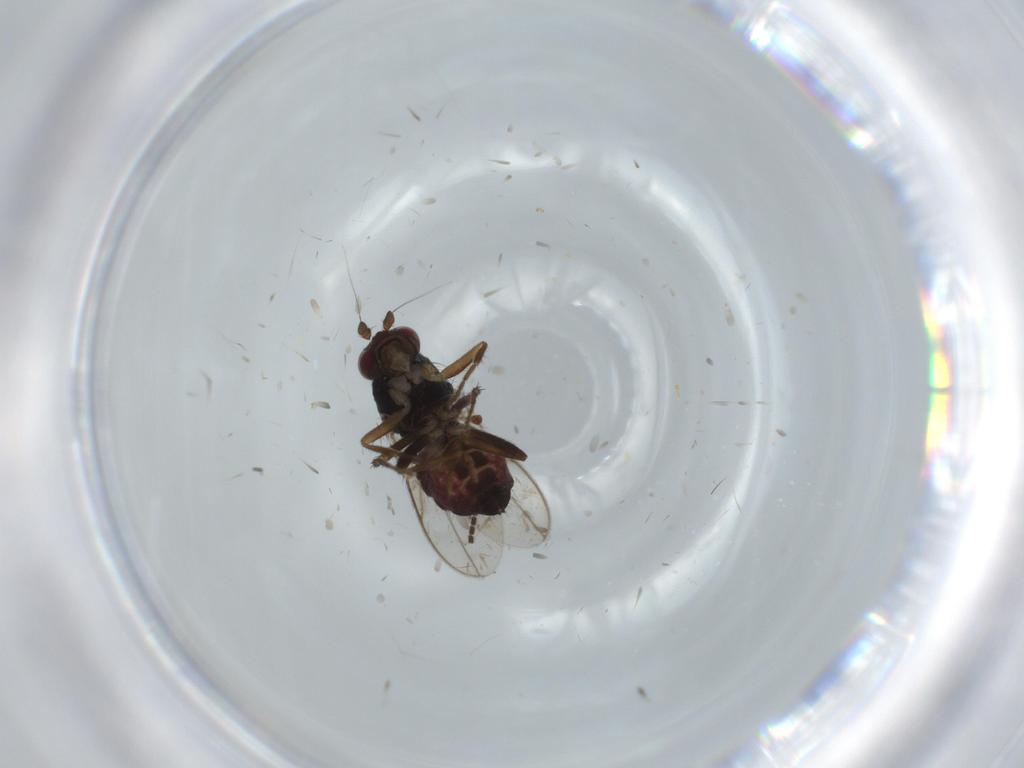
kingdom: Animalia
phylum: Arthropoda
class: Insecta
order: Diptera
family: Sphaeroceridae
